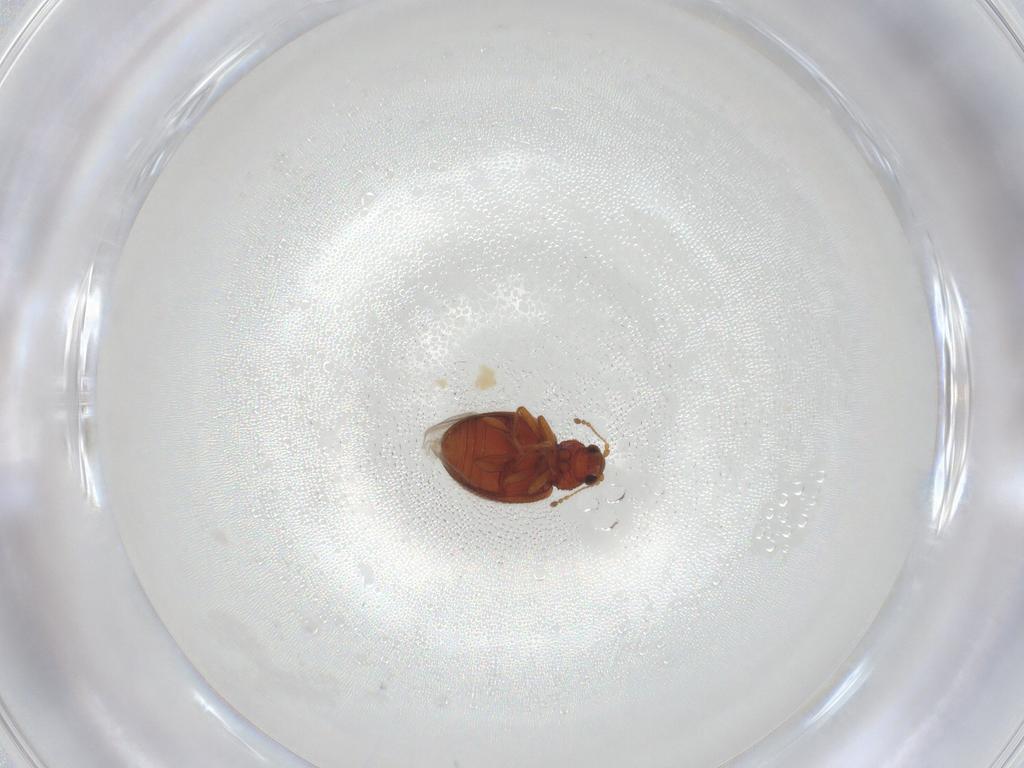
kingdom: Animalia
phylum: Arthropoda
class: Insecta
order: Coleoptera
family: Latridiidae
